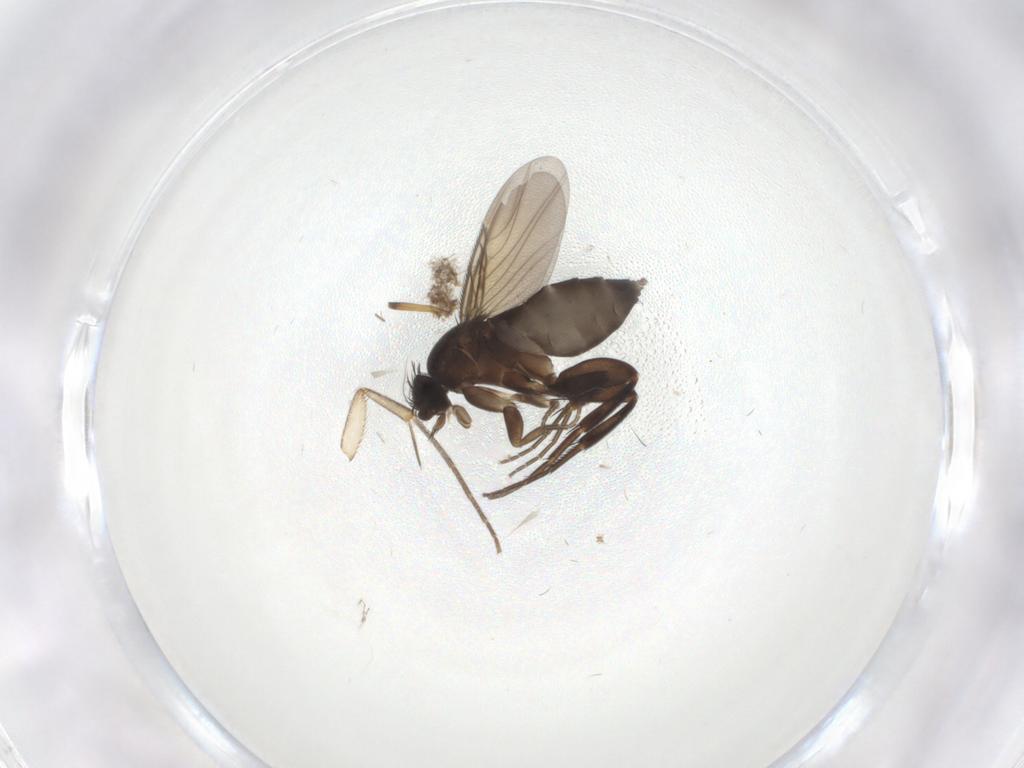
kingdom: Animalia
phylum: Arthropoda
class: Insecta
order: Diptera
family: Phoridae
